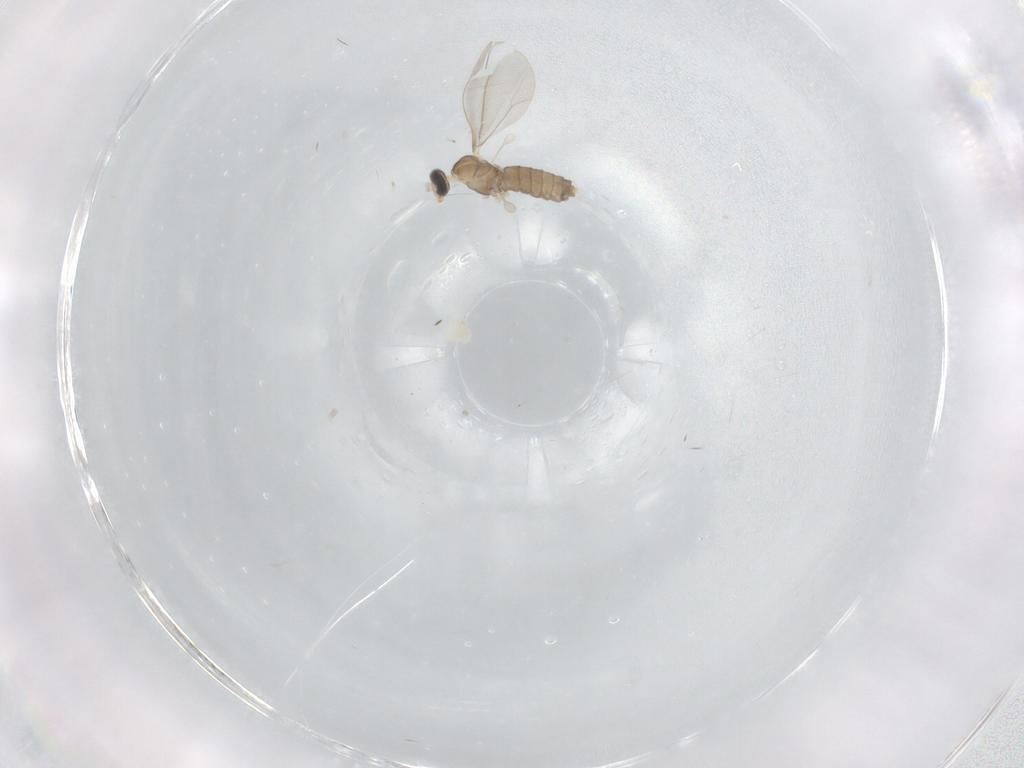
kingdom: Animalia
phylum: Arthropoda
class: Insecta
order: Diptera
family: Cecidomyiidae
